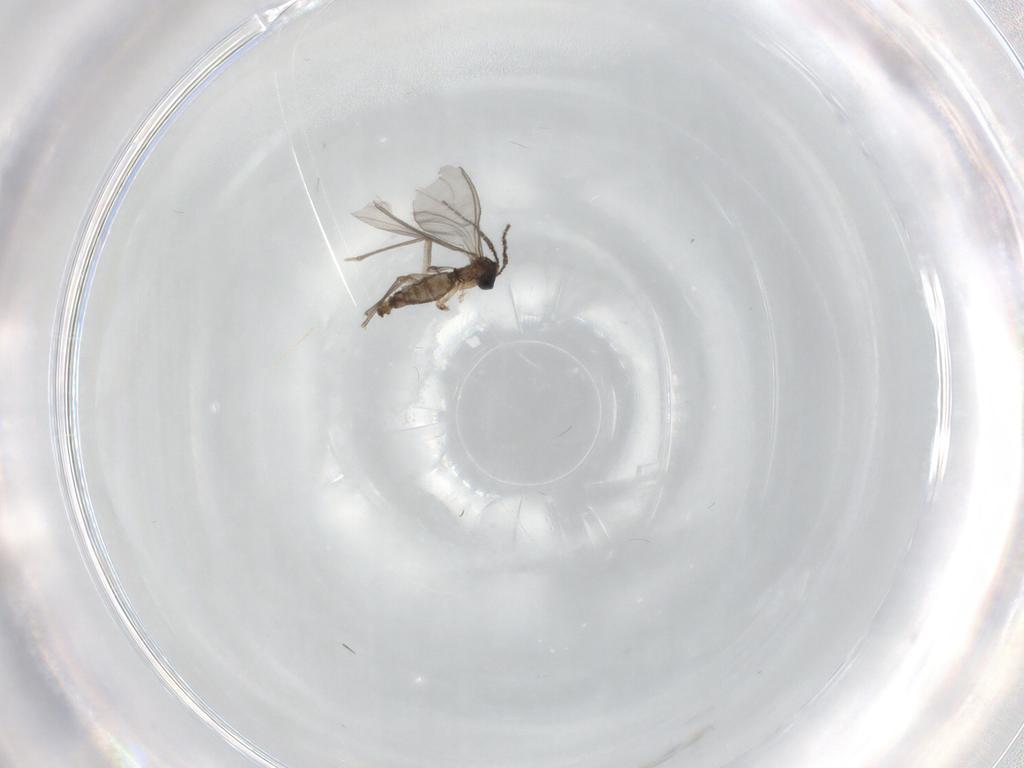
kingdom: Animalia
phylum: Arthropoda
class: Insecta
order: Diptera
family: Sciaridae
